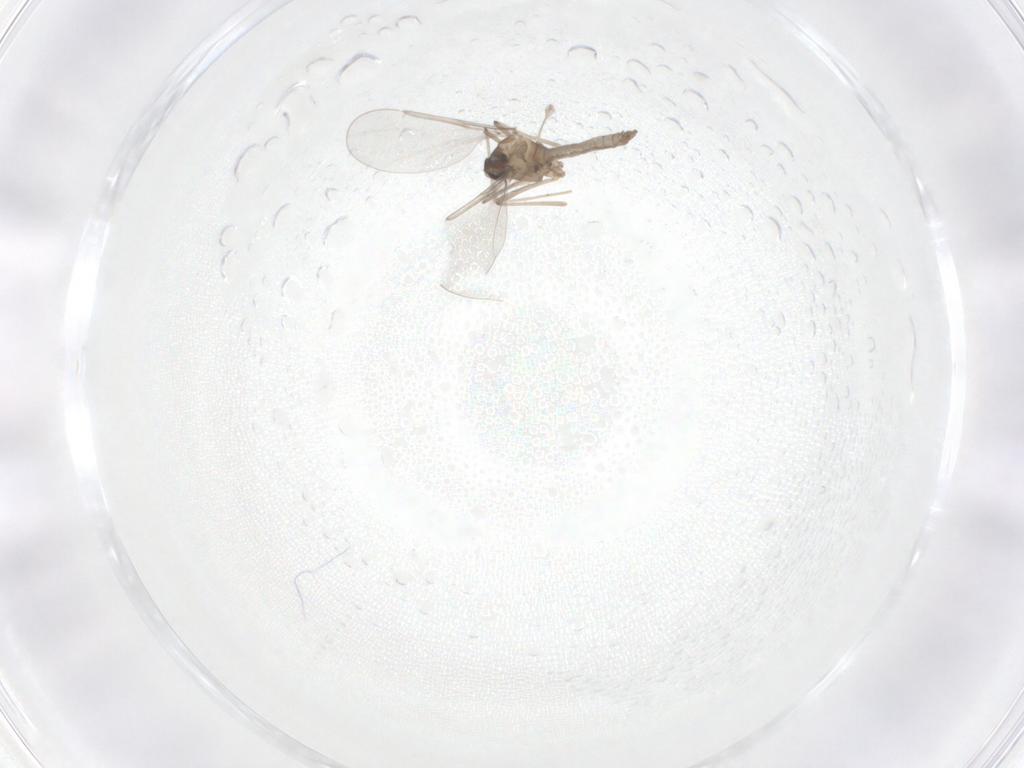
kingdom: Animalia
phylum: Arthropoda
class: Insecta
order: Diptera
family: Cecidomyiidae
